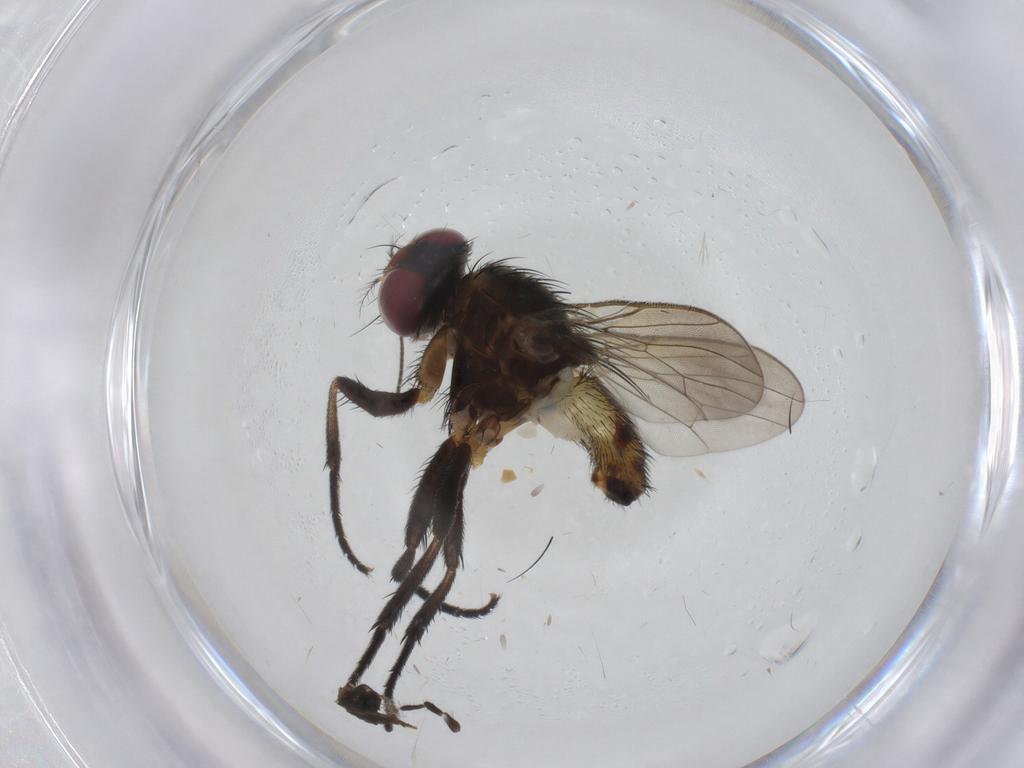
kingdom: Animalia
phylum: Arthropoda
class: Insecta
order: Diptera
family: Anthomyiidae
